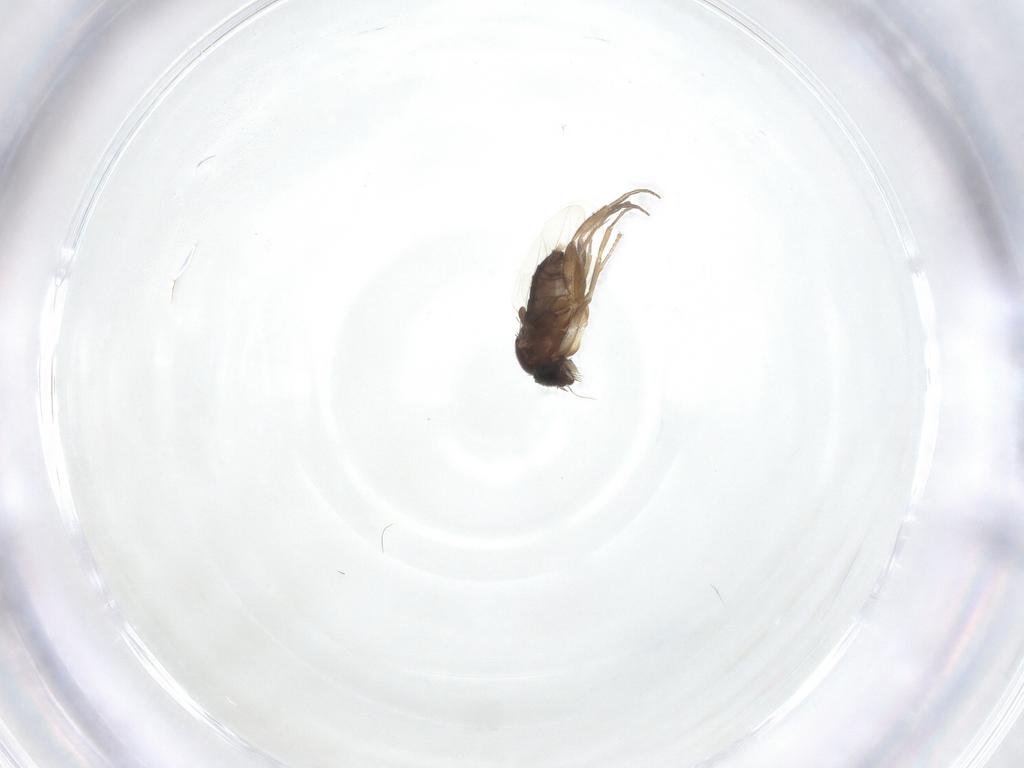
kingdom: Animalia
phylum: Arthropoda
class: Insecta
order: Diptera
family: Phoridae
